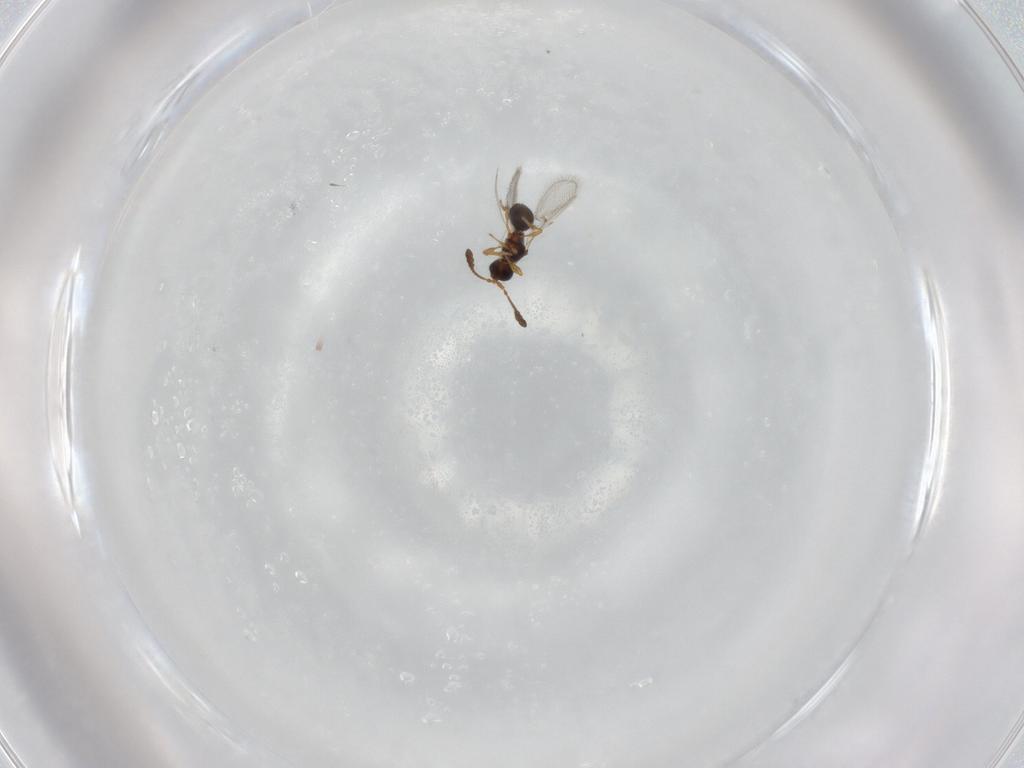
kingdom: Animalia
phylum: Arthropoda
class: Insecta
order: Hymenoptera
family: Diapriidae
